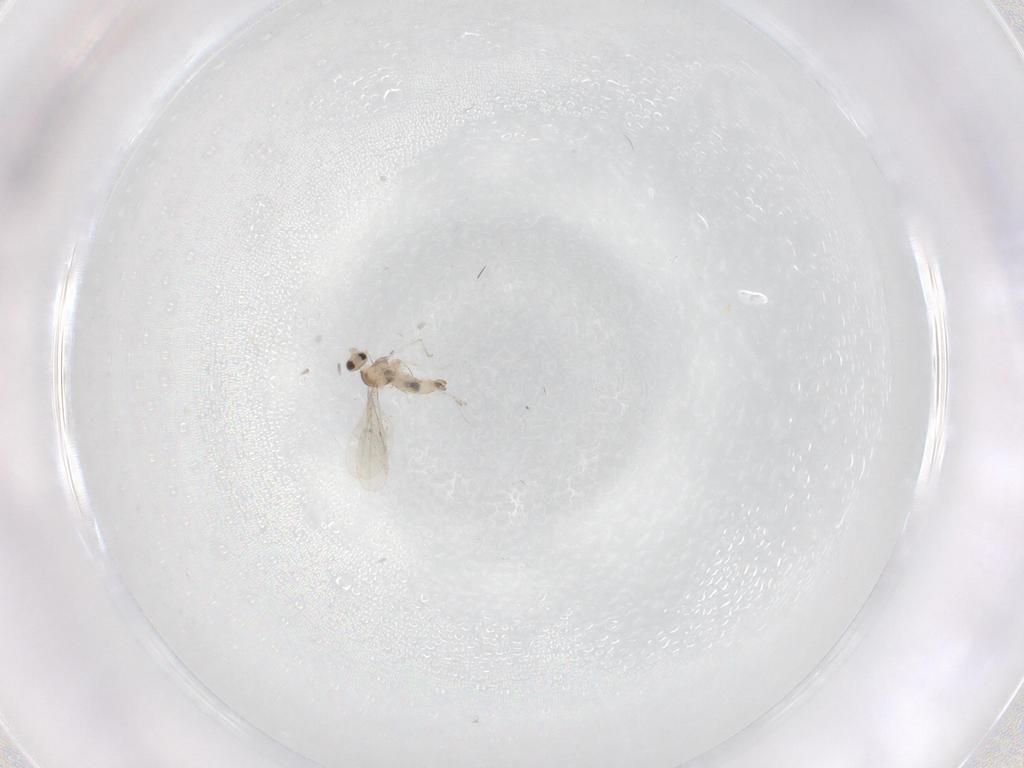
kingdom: Animalia
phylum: Arthropoda
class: Insecta
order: Diptera
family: Cecidomyiidae
